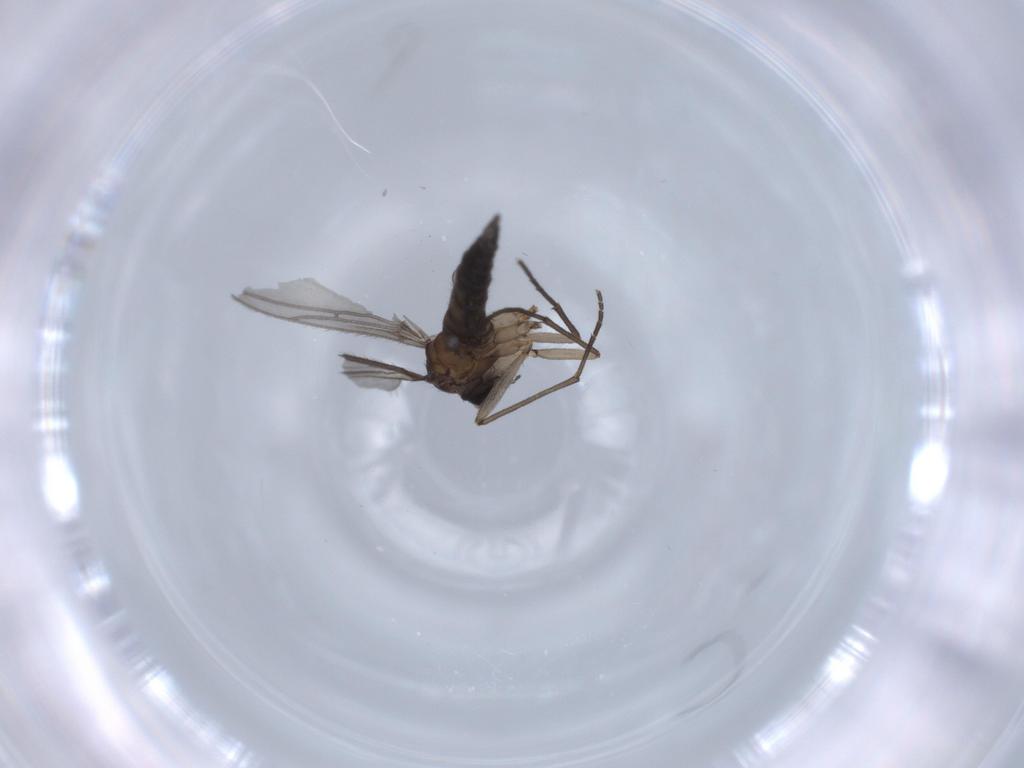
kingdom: Animalia
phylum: Arthropoda
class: Insecta
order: Diptera
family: Sciaridae
